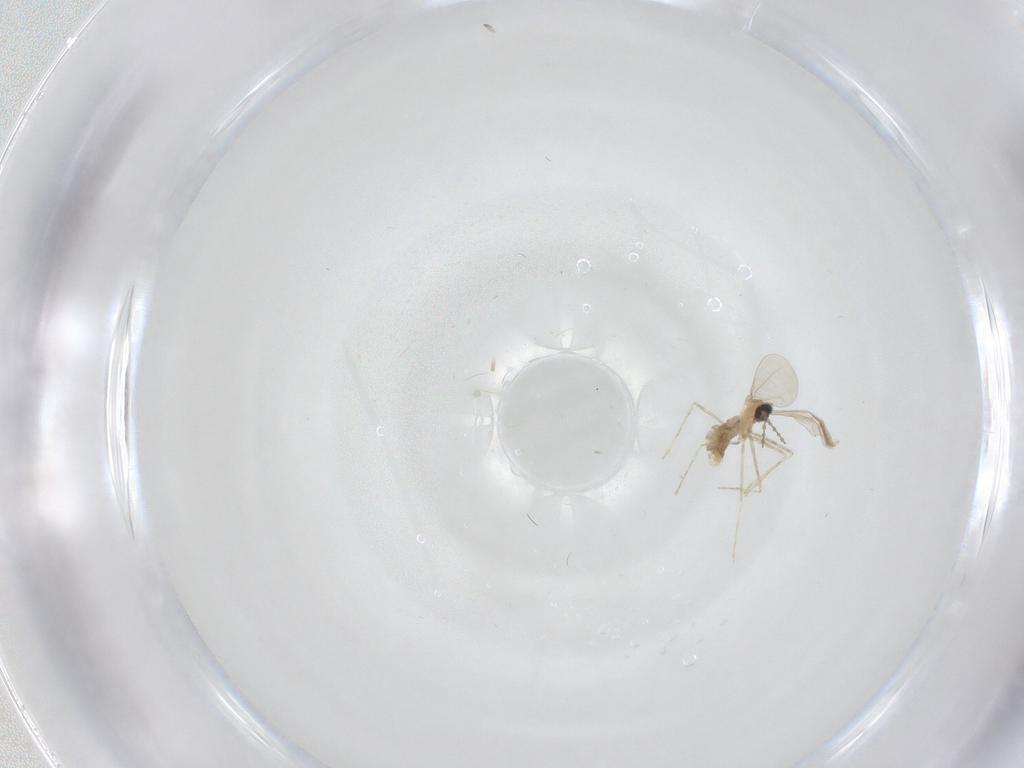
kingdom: Animalia
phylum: Arthropoda
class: Insecta
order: Diptera
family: Cecidomyiidae
